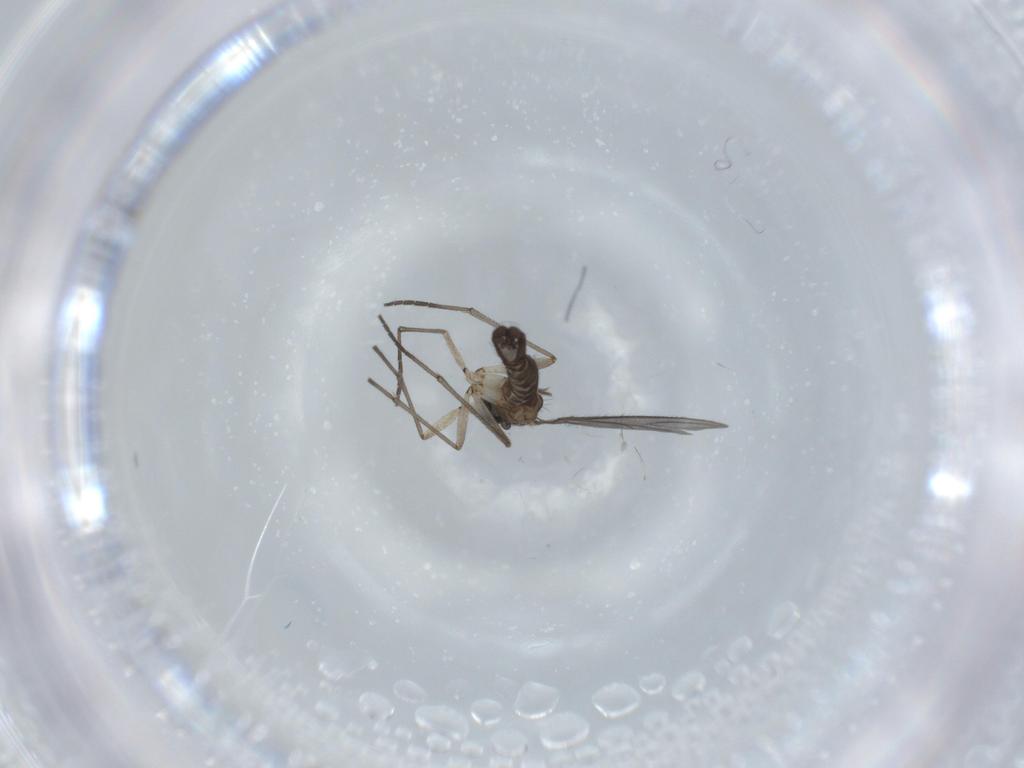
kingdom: Animalia
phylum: Arthropoda
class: Insecta
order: Diptera
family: Sciaridae
